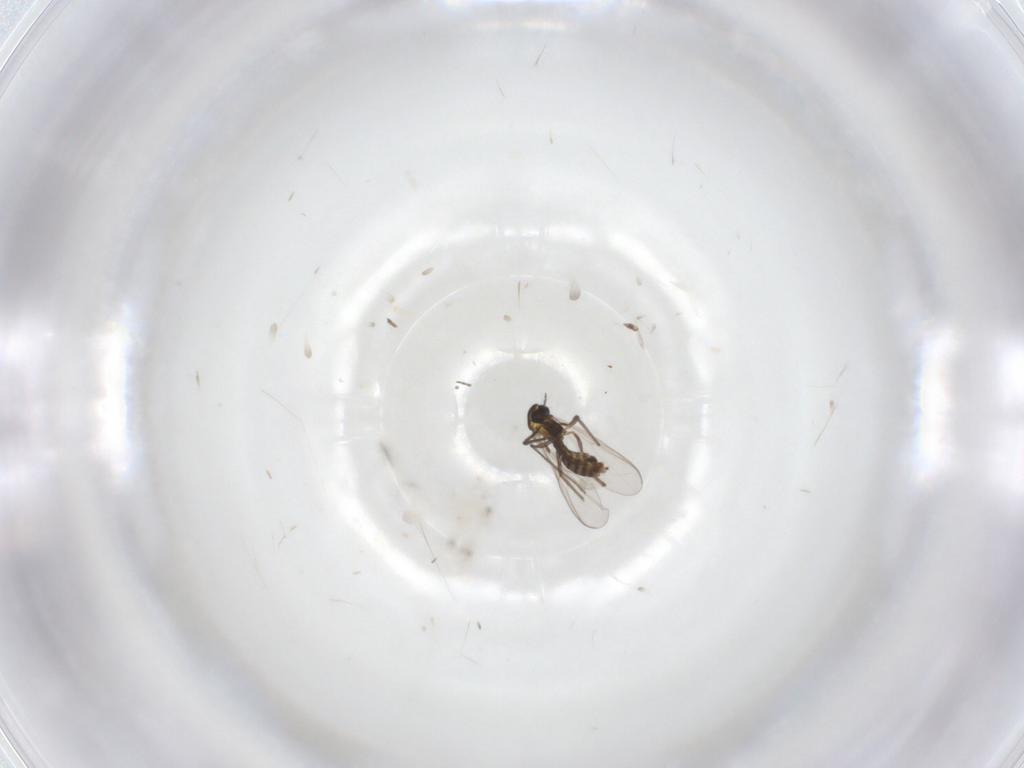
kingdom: Animalia
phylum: Arthropoda
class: Insecta
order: Diptera
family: Chironomidae
